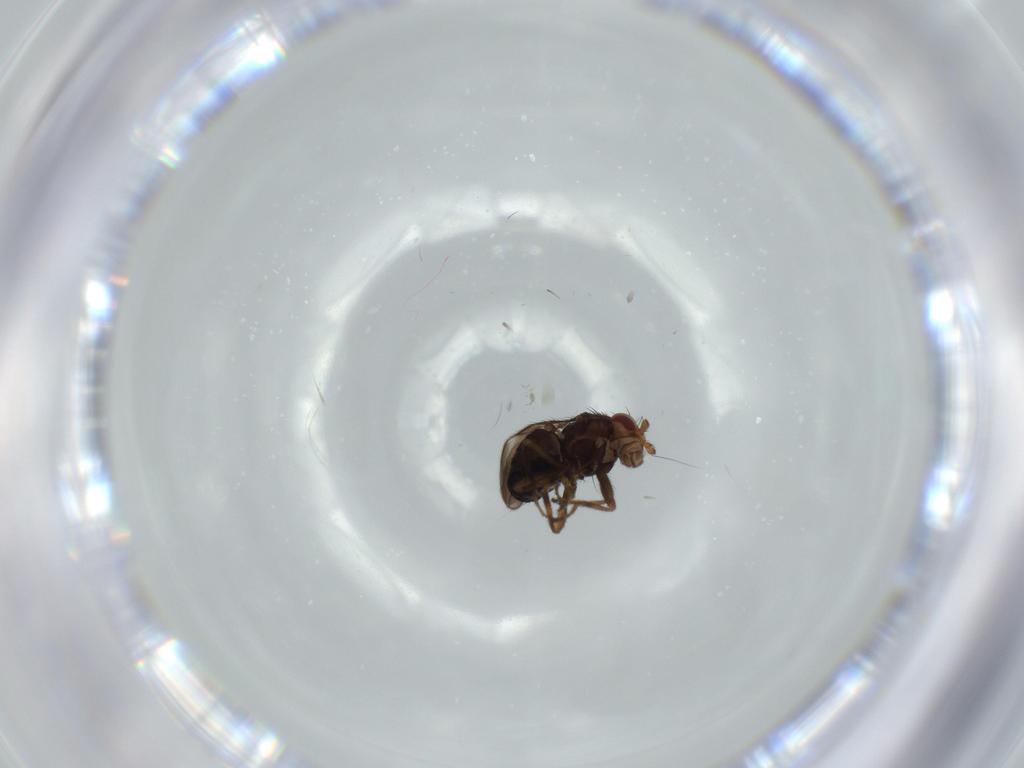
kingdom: Animalia
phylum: Arthropoda
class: Insecta
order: Diptera
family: Sphaeroceridae
